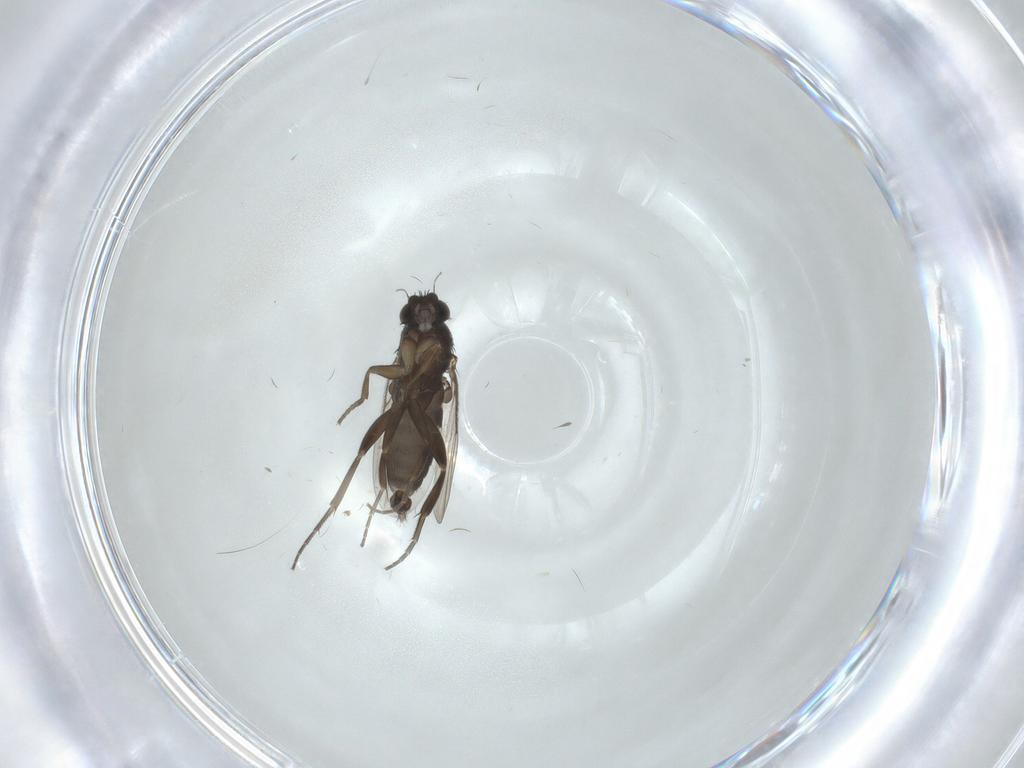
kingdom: Animalia
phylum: Arthropoda
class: Insecta
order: Diptera
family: Phoridae
